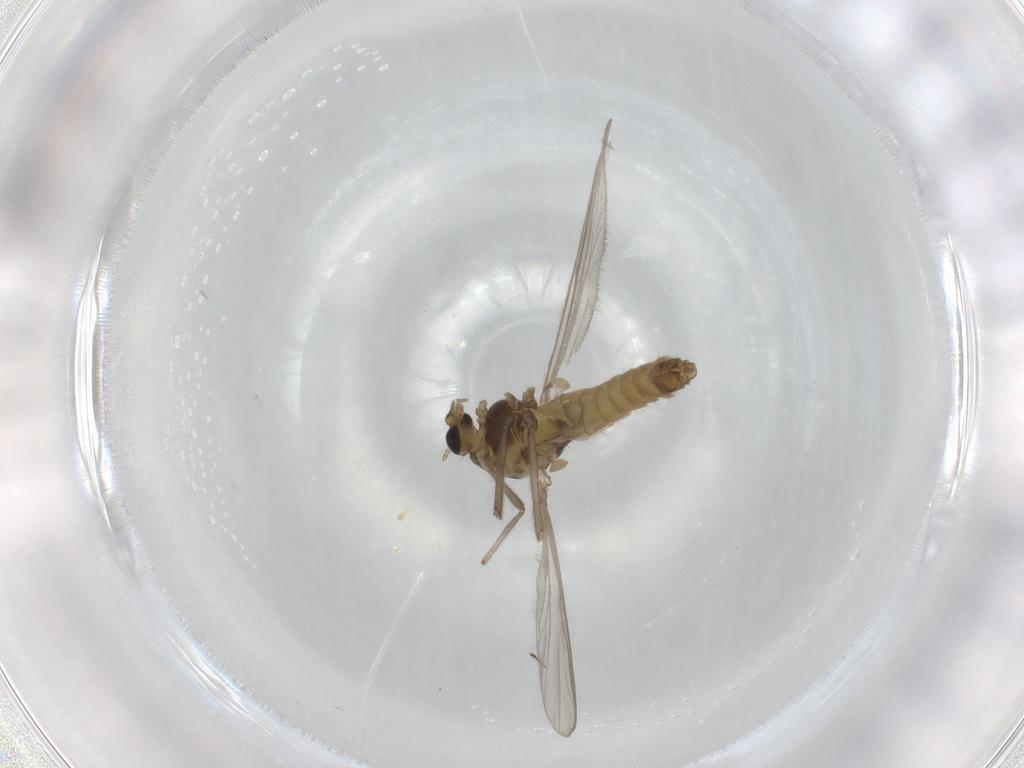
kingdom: Animalia
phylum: Arthropoda
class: Insecta
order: Diptera
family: Chironomidae
